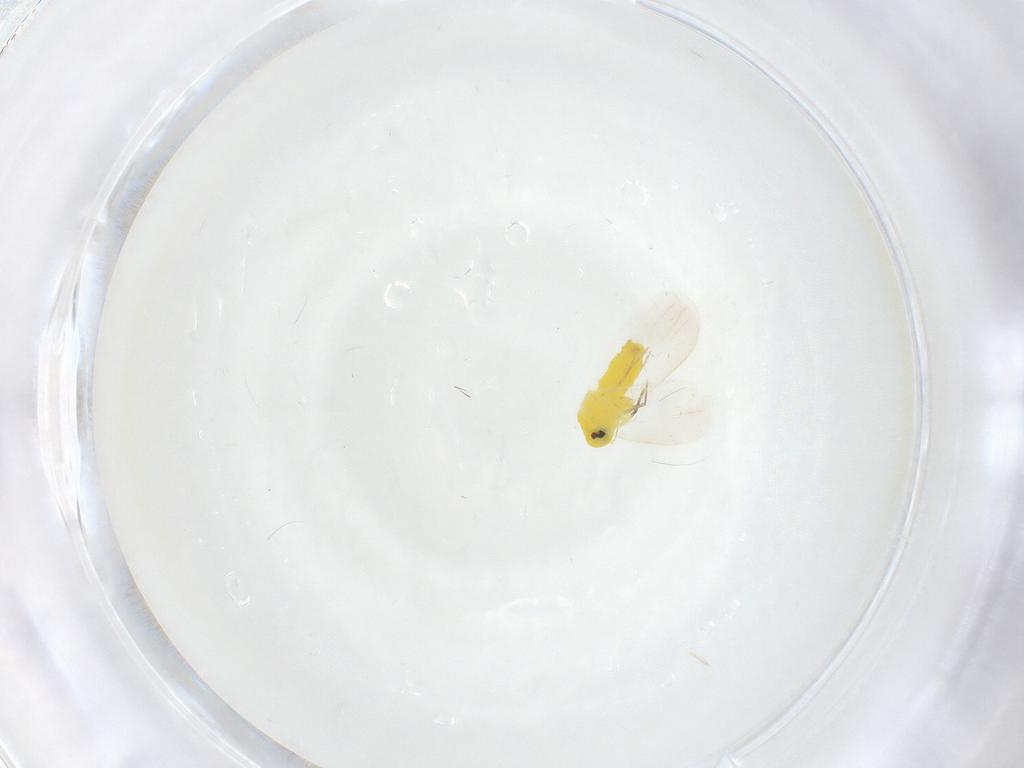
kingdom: Animalia
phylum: Arthropoda
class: Insecta
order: Hemiptera
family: Aleyrodidae
